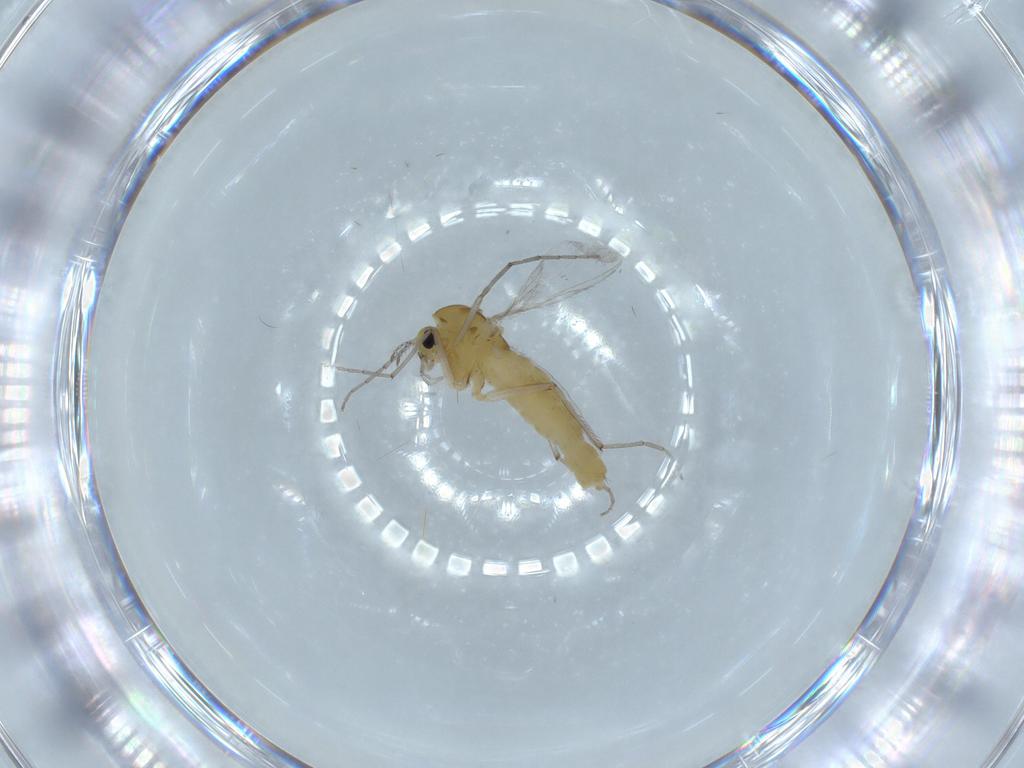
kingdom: Animalia
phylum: Arthropoda
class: Insecta
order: Diptera
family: Chironomidae
